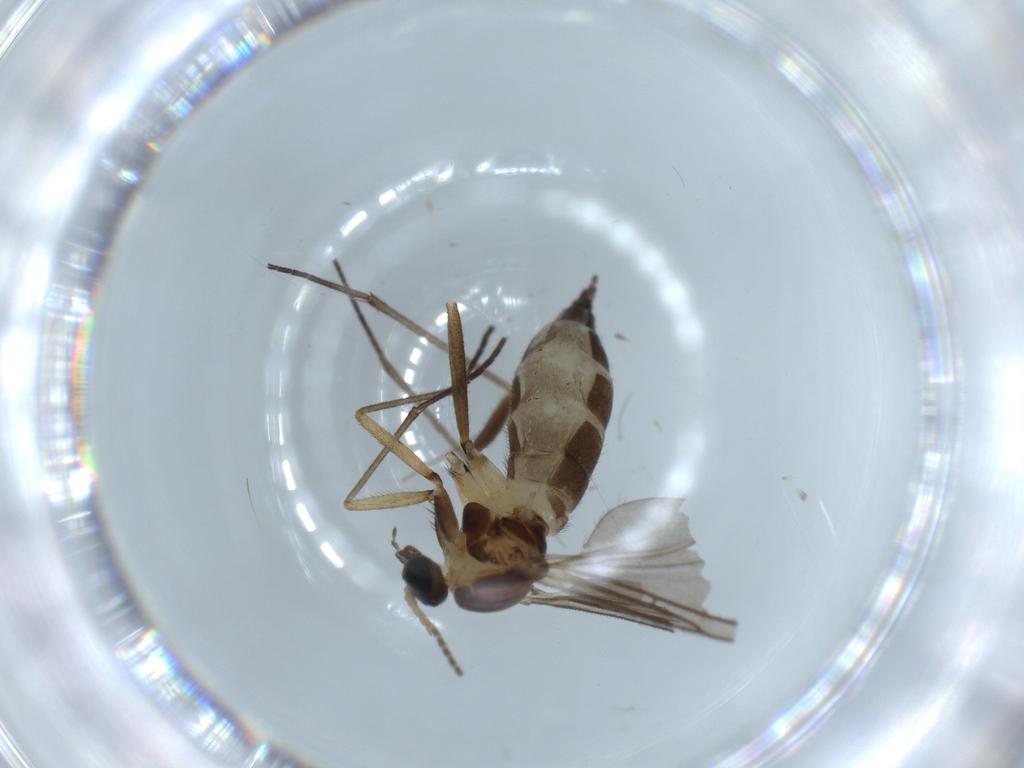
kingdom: Animalia
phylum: Arthropoda
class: Insecta
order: Diptera
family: Sciaridae
